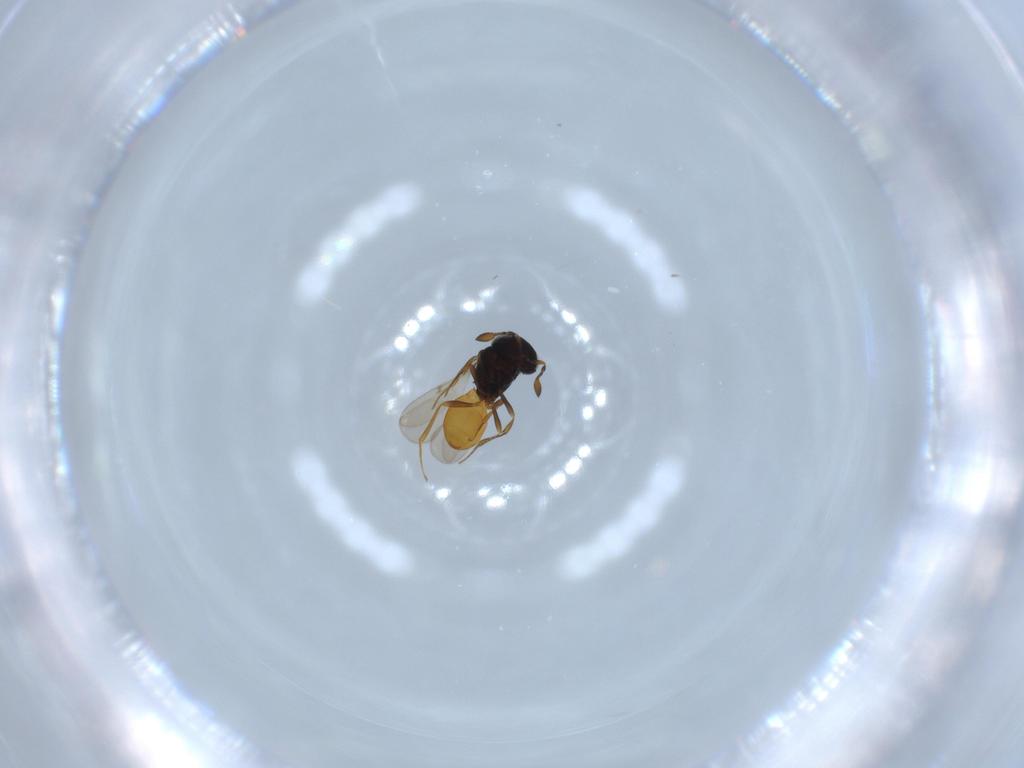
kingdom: Animalia
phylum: Arthropoda
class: Insecta
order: Hymenoptera
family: Scelionidae
